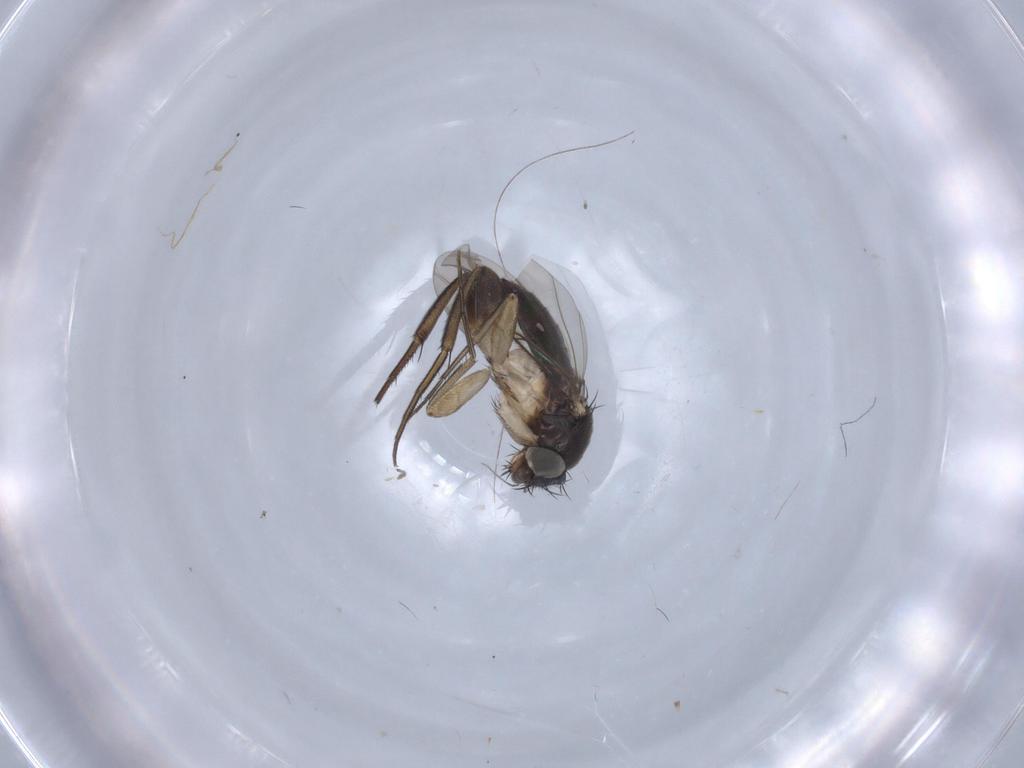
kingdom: Animalia
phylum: Arthropoda
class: Insecta
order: Diptera
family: Phoridae
